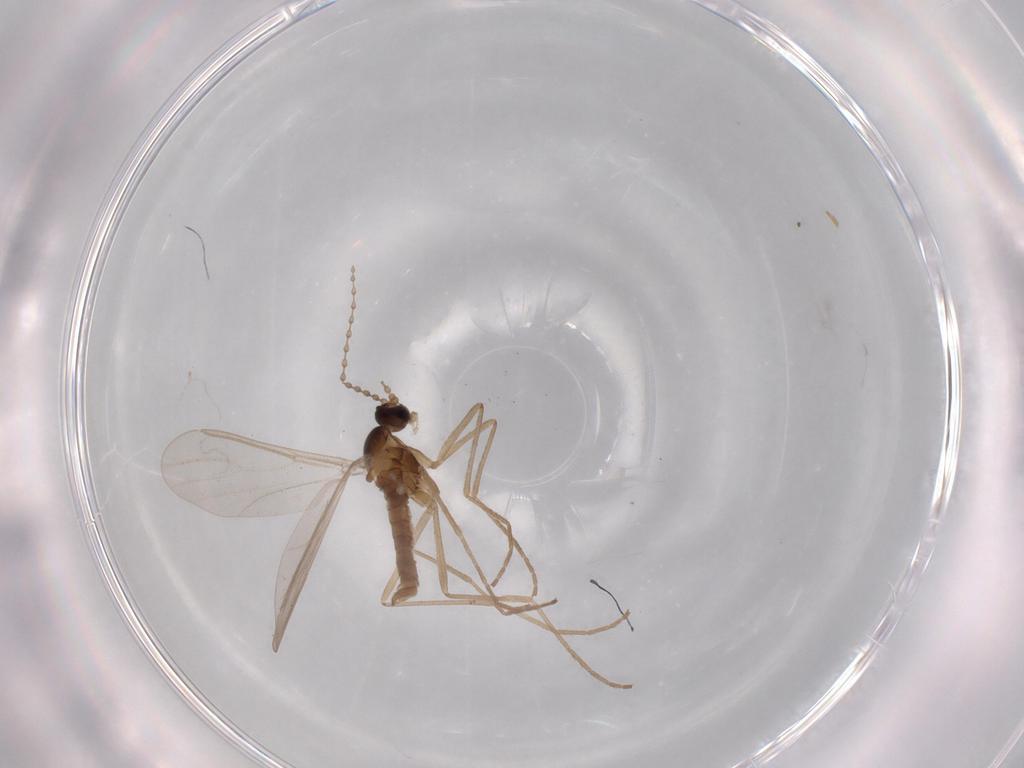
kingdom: Animalia
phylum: Arthropoda
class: Insecta
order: Diptera
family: Cecidomyiidae
